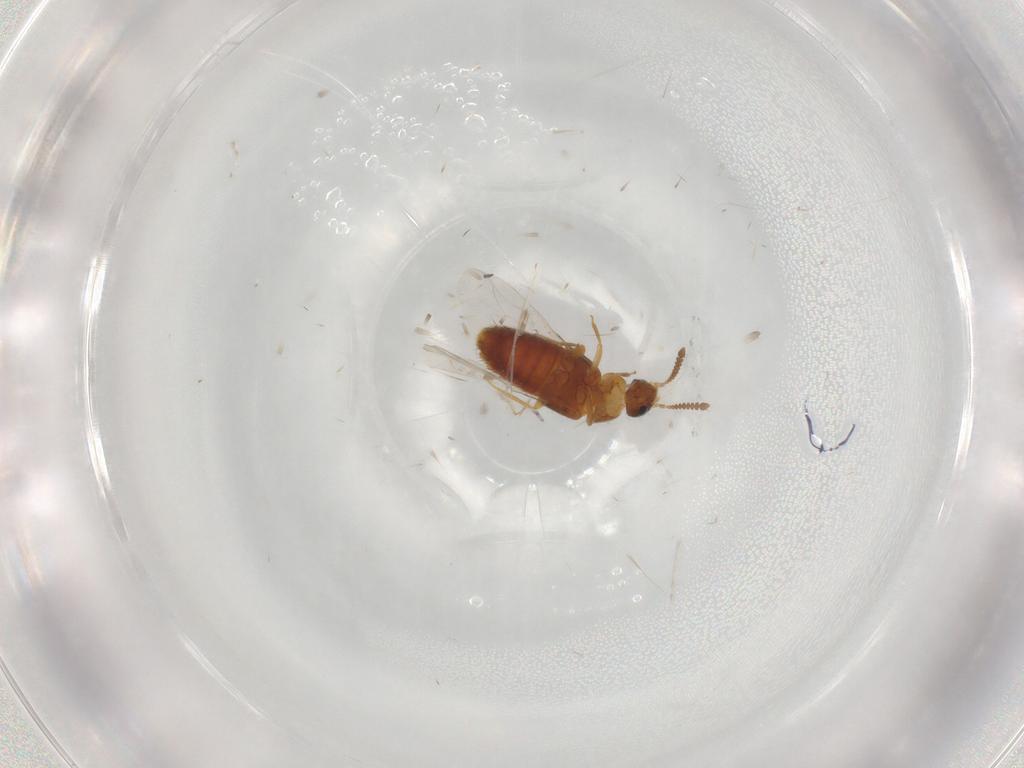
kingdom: Animalia
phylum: Arthropoda
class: Insecta
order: Coleoptera
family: Staphylinidae
